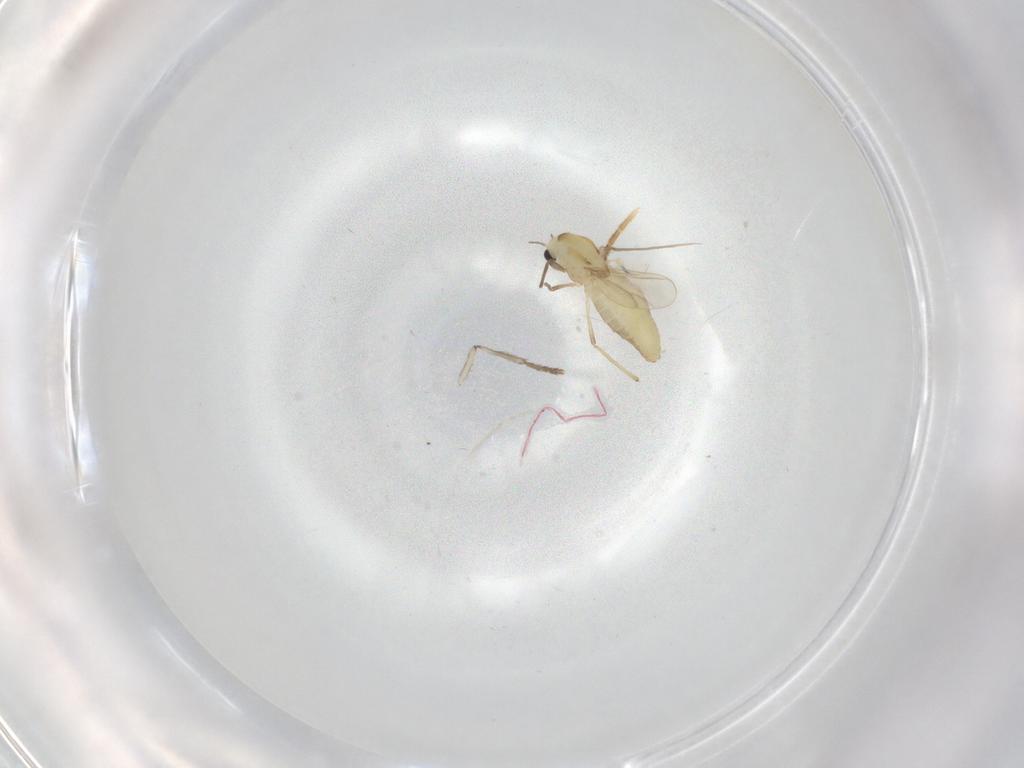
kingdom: Animalia
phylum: Arthropoda
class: Insecta
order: Diptera
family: Chironomidae
